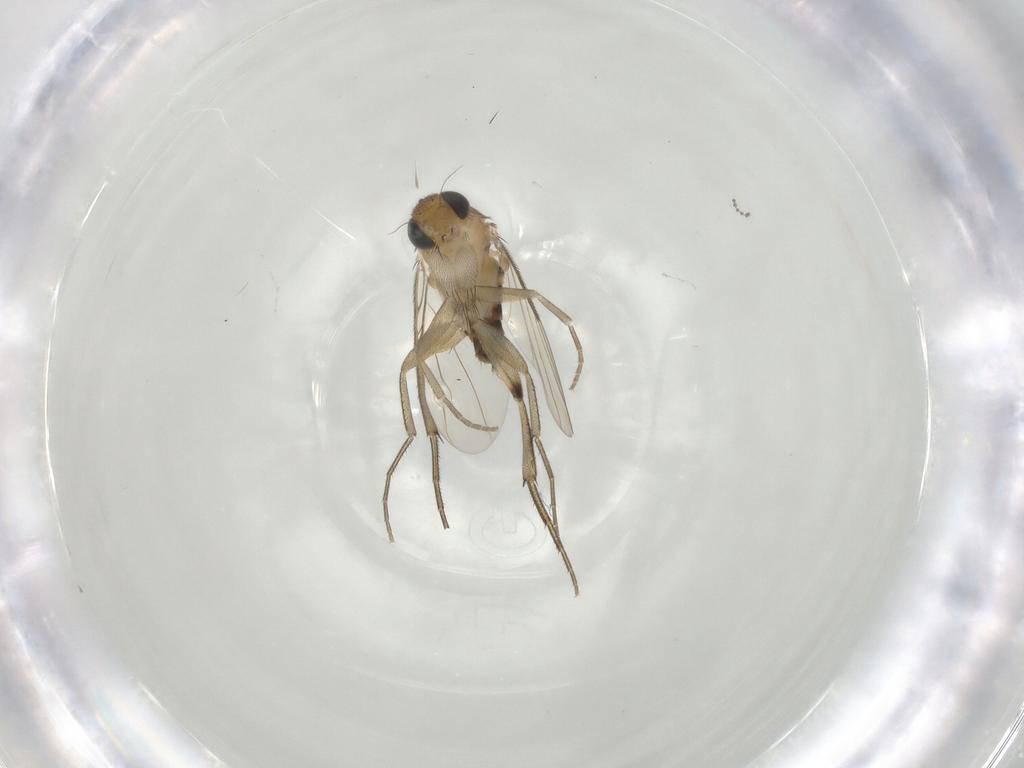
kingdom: Animalia
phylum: Arthropoda
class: Insecta
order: Diptera
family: Phoridae
